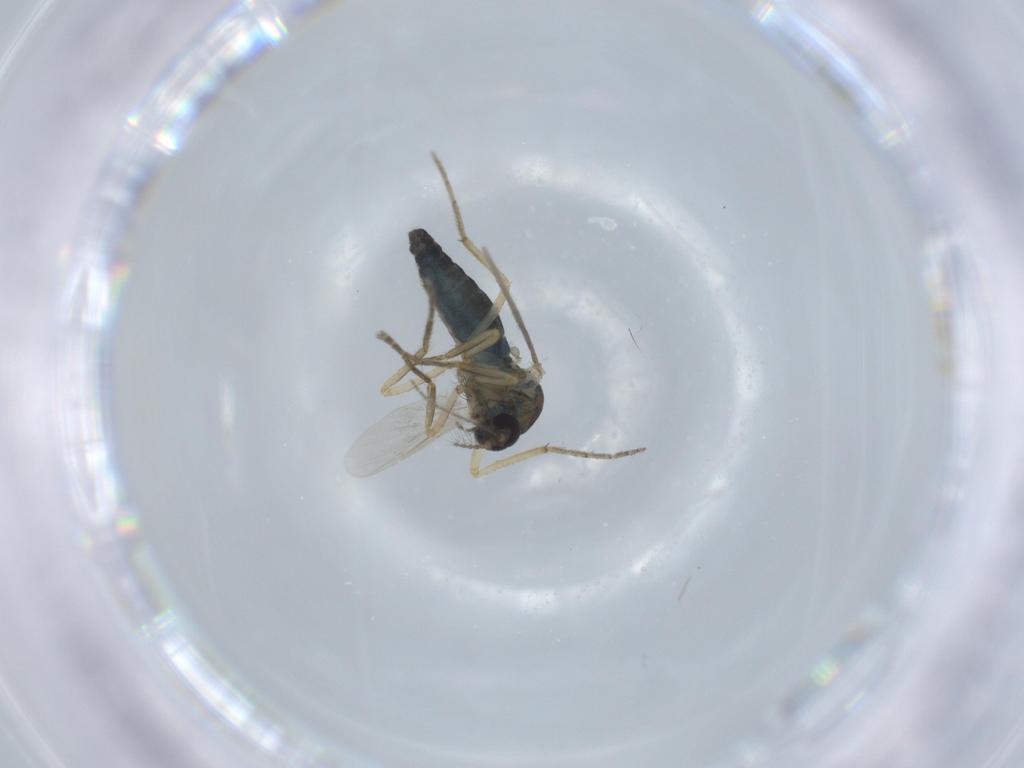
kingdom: Animalia
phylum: Arthropoda
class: Insecta
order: Diptera
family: Ceratopogonidae
